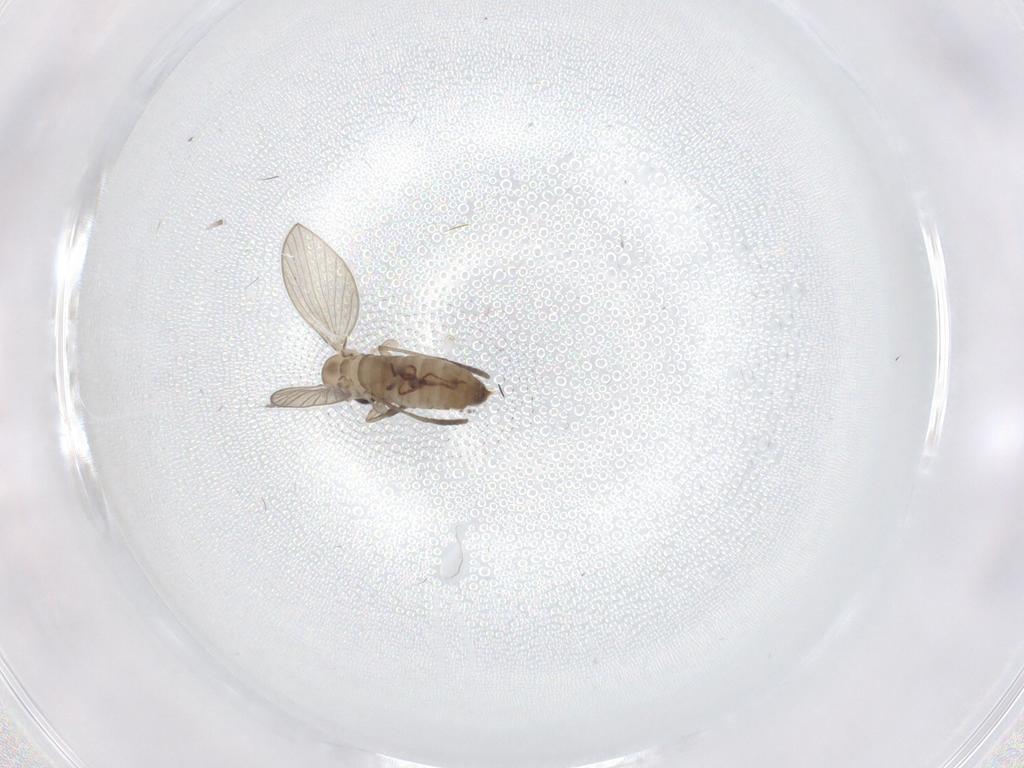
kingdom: Animalia
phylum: Arthropoda
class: Insecta
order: Diptera
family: Psychodidae
